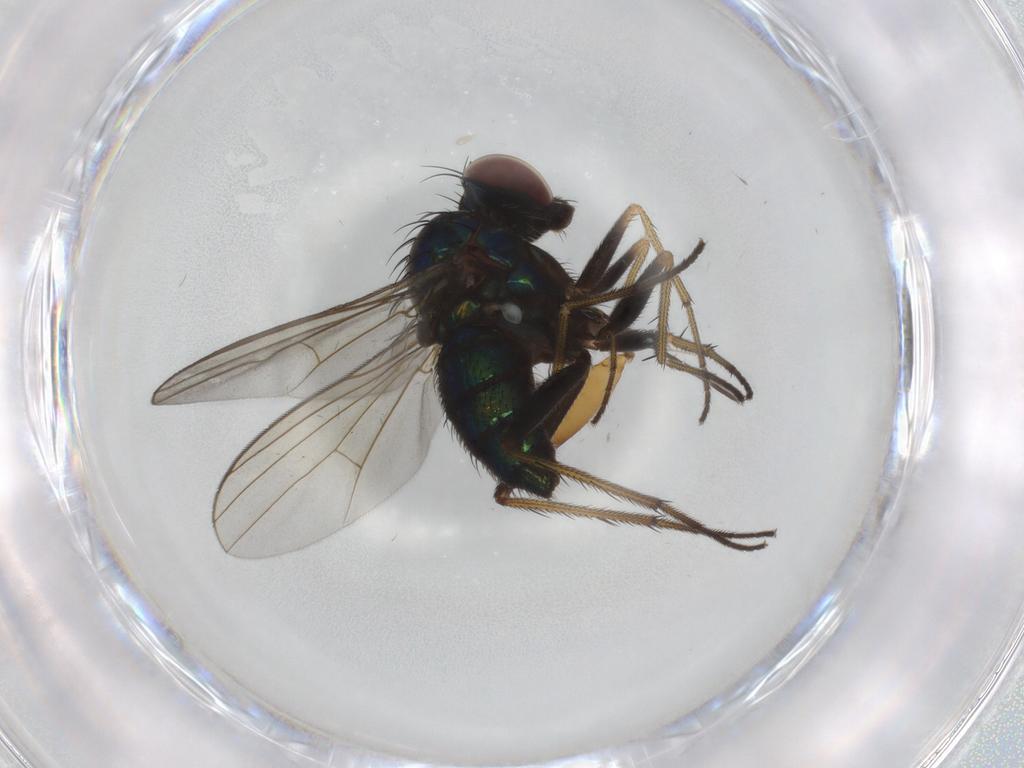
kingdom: Animalia
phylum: Arthropoda
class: Insecta
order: Diptera
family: Dolichopodidae
